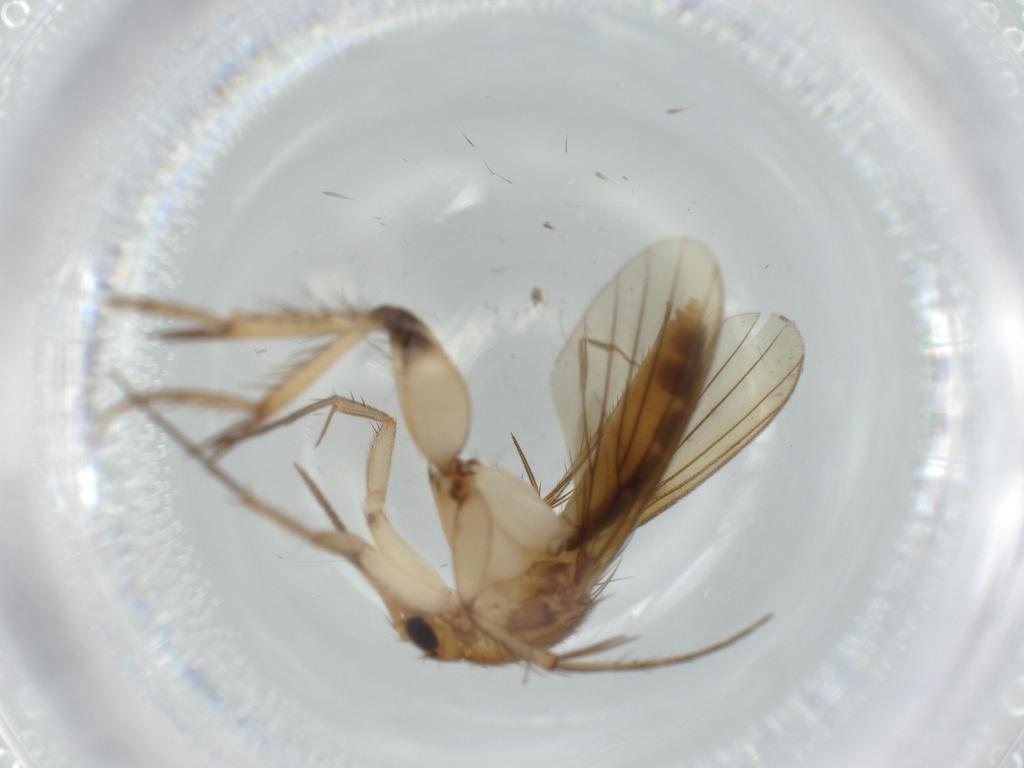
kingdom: Animalia
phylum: Arthropoda
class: Insecta
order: Diptera
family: Mycetophilidae
